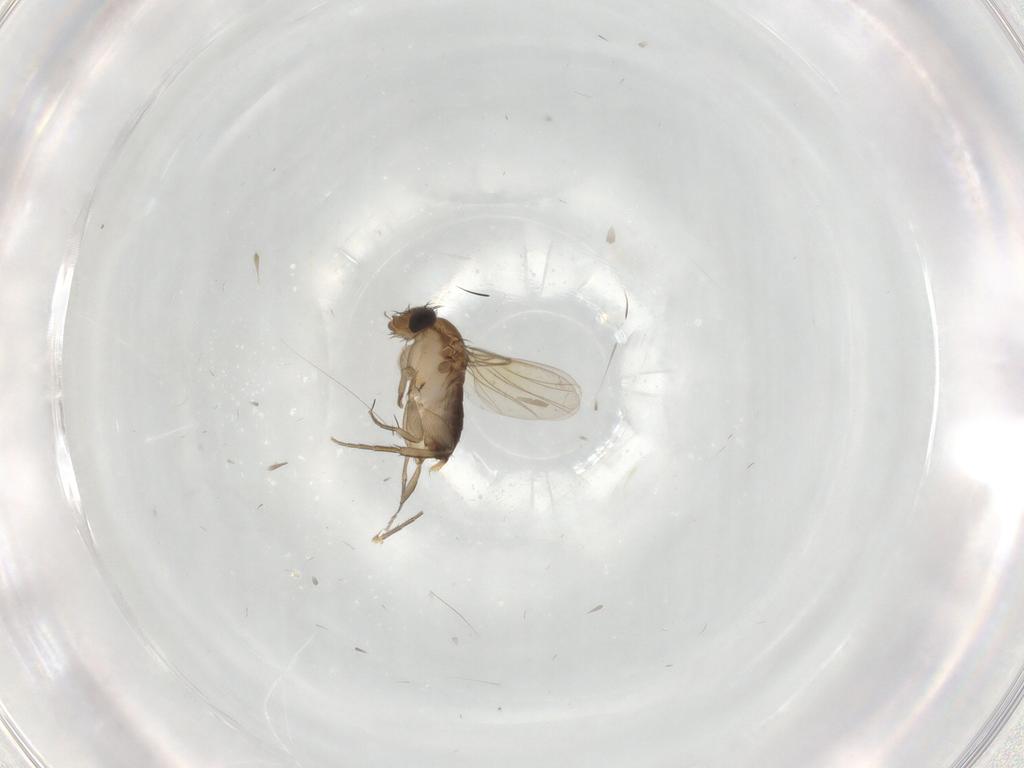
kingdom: Animalia
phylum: Arthropoda
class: Insecta
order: Diptera
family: Phoridae
